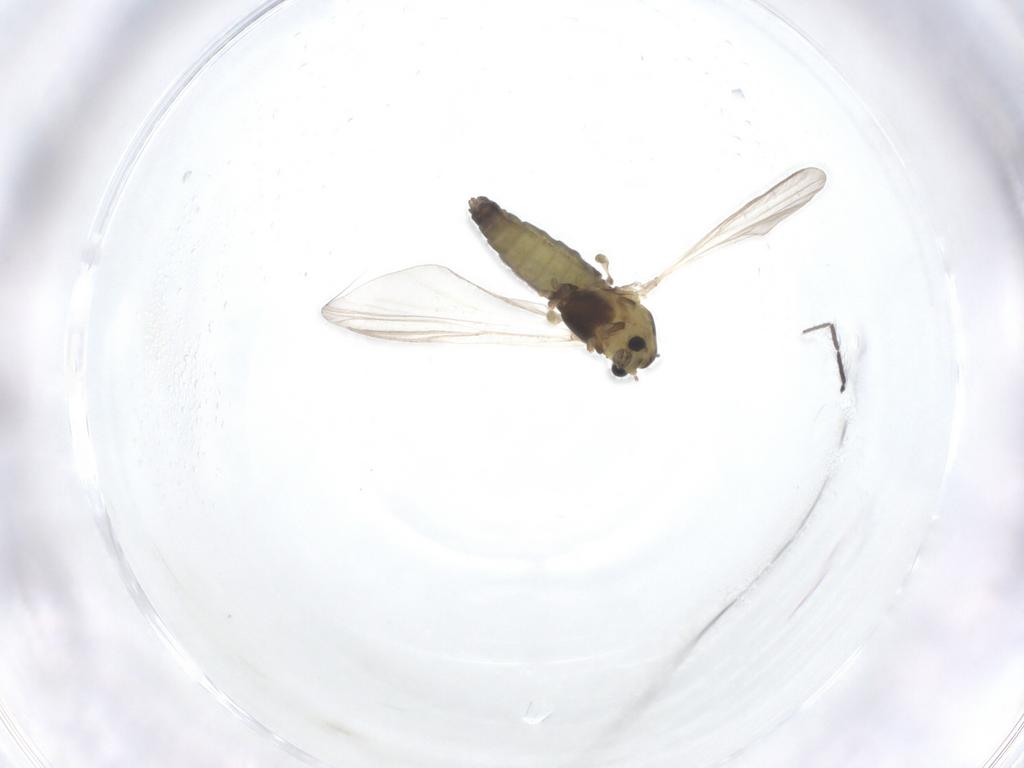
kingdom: Animalia
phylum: Arthropoda
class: Insecta
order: Diptera
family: Chironomidae
